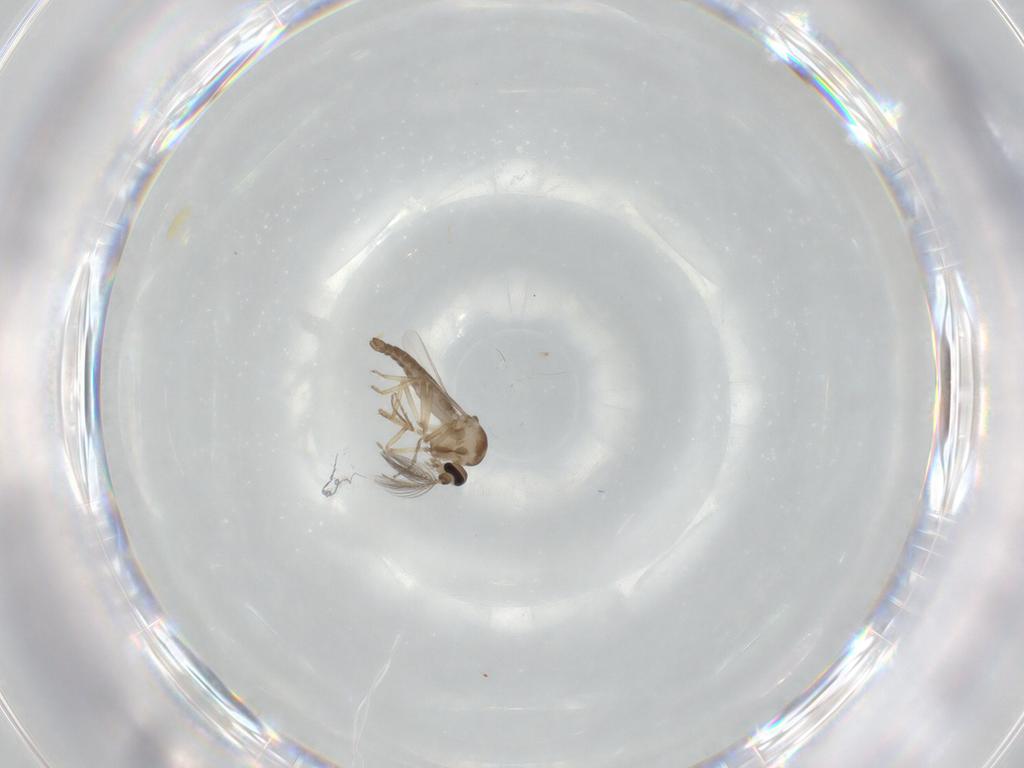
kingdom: Animalia
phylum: Arthropoda
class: Insecta
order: Diptera
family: Ceratopogonidae
